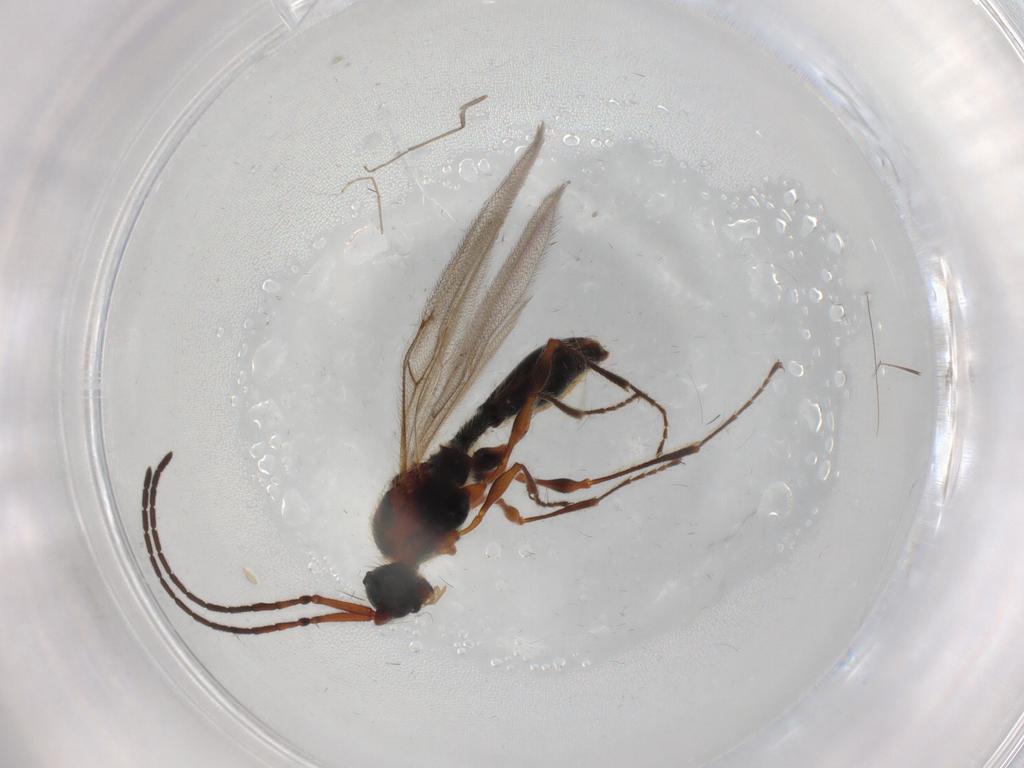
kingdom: Animalia
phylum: Arthropoda
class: Insecta
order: Hymenoptera
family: Diapriidae
